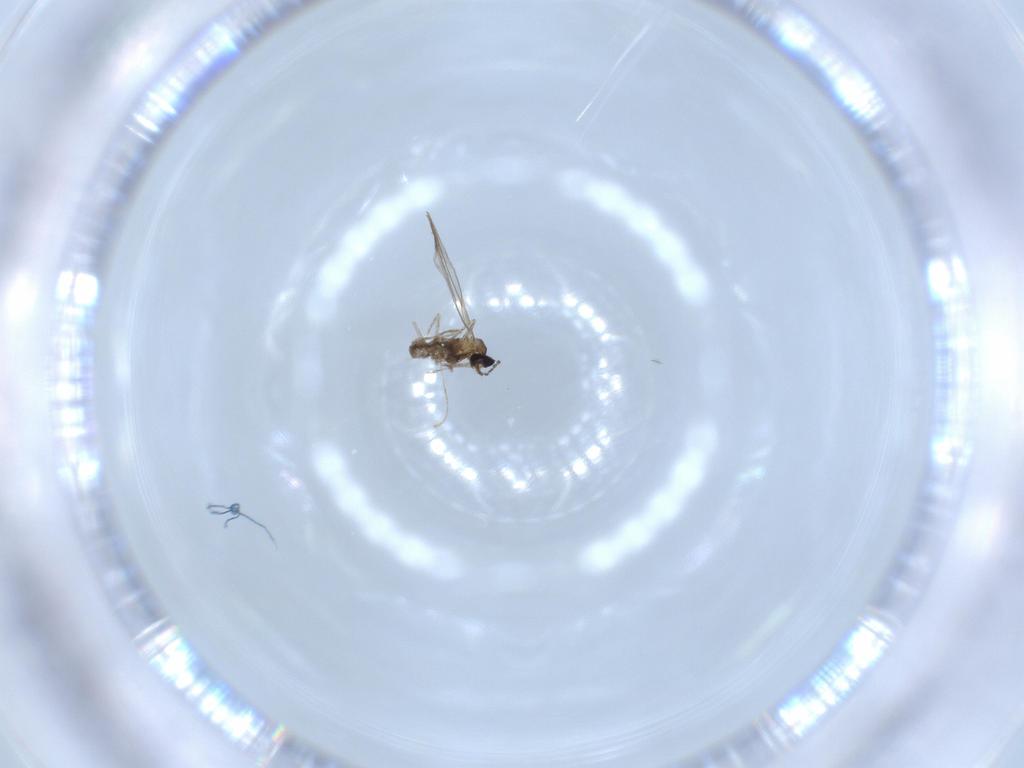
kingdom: Animalia
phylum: Arthropoda
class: Insecta
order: Diptera
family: Cecidomyiidae
